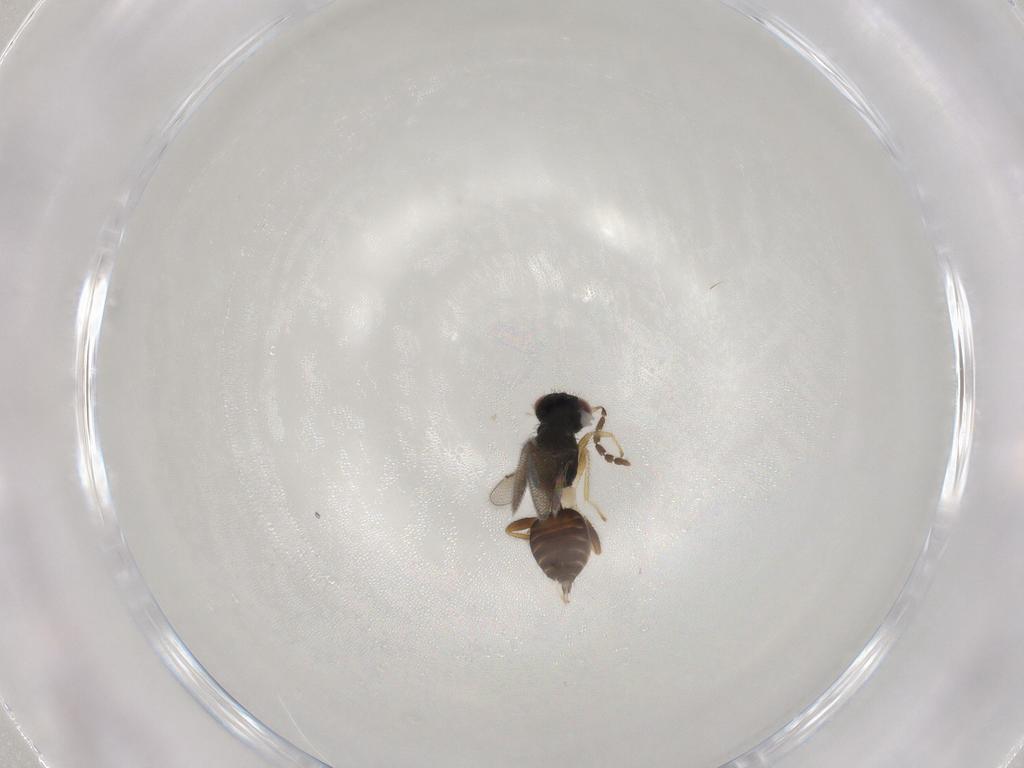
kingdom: Animalia
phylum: Arthropoda
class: Insecta
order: Hymenoptera
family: Eulophidae
